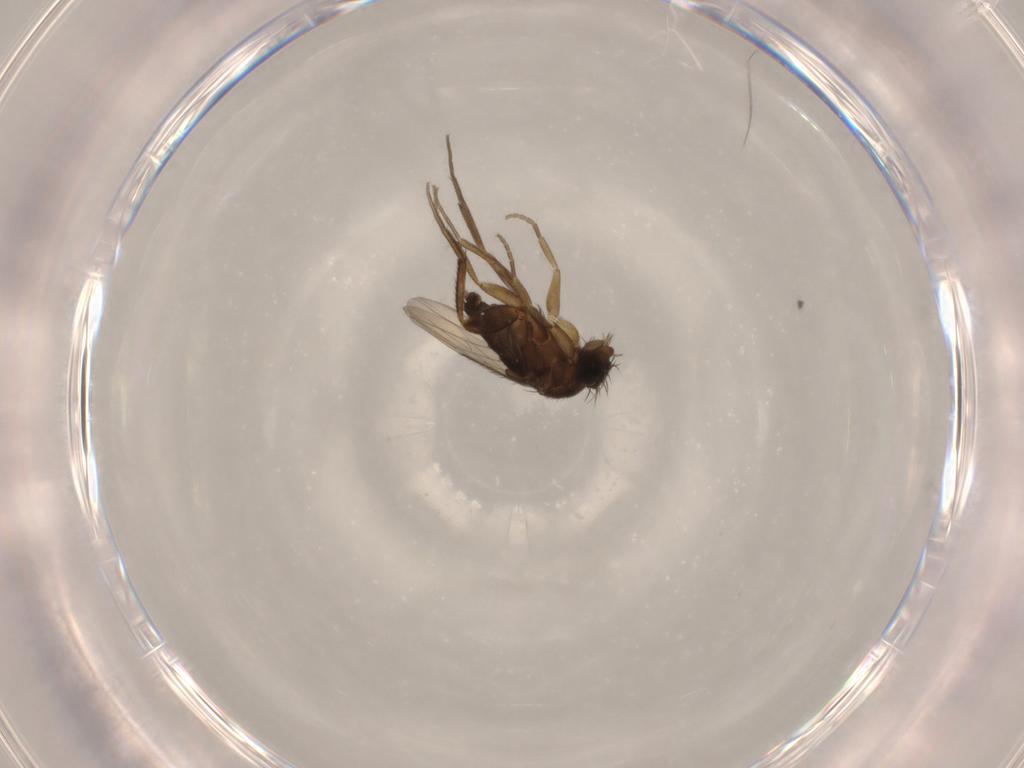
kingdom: Animalia
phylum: Arthropoda
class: Insecta
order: Diptera
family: Phoridae
